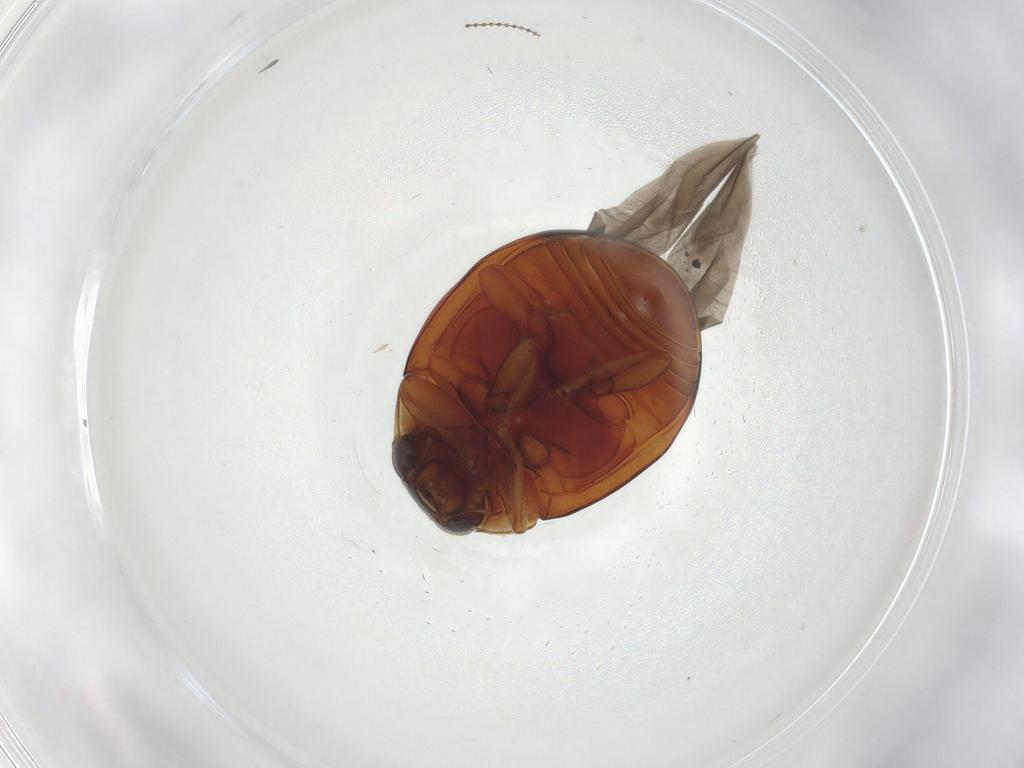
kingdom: Animalia
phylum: Arthropoda
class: Insecta
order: Coleoptera
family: Coccinellidae
